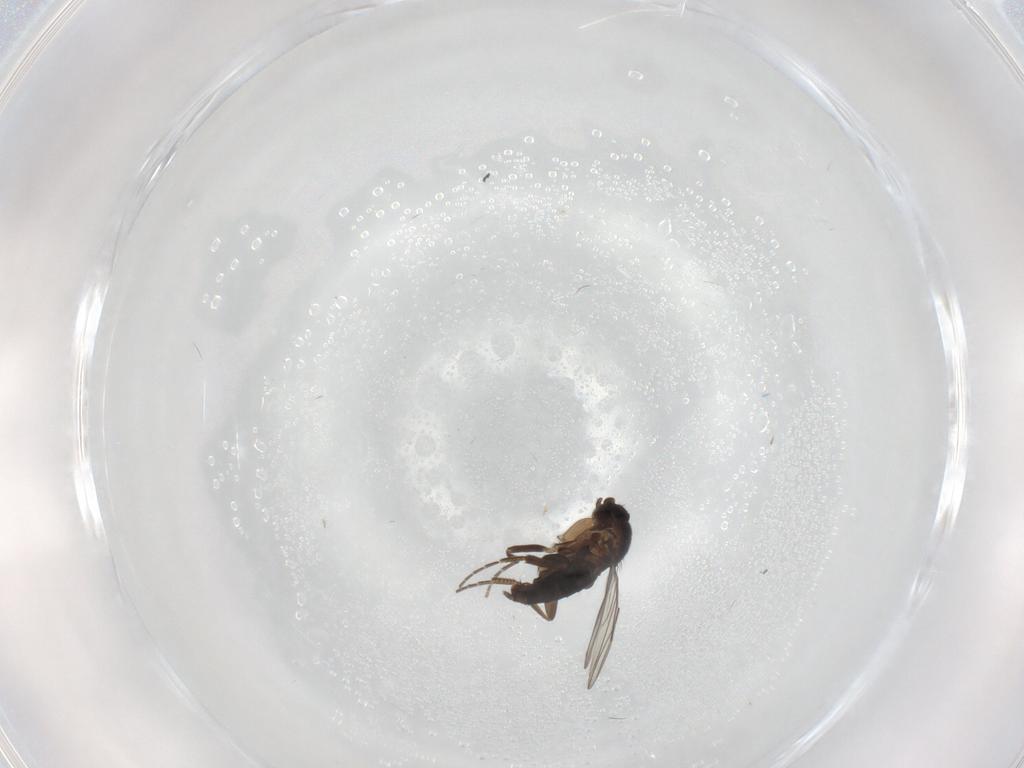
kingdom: Animalia
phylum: Arthropoda
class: Insecta
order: Diptera
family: Phoridae
